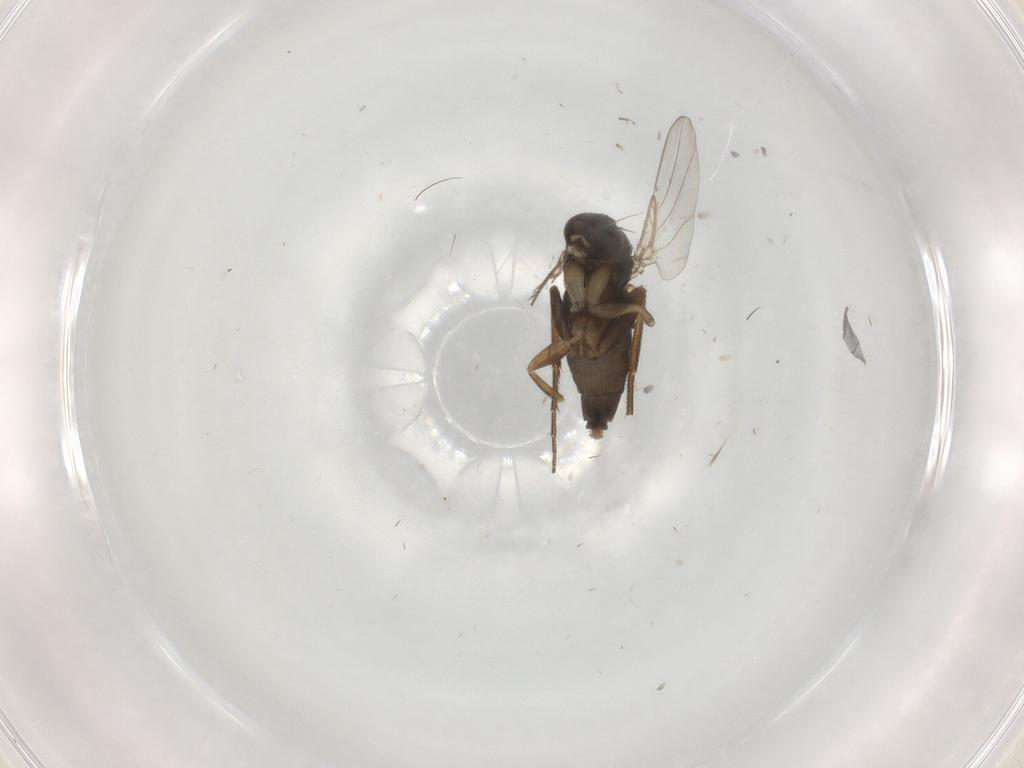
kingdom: Animalia
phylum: Arthropoda
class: Insecta
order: Diptera
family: Phoridae
